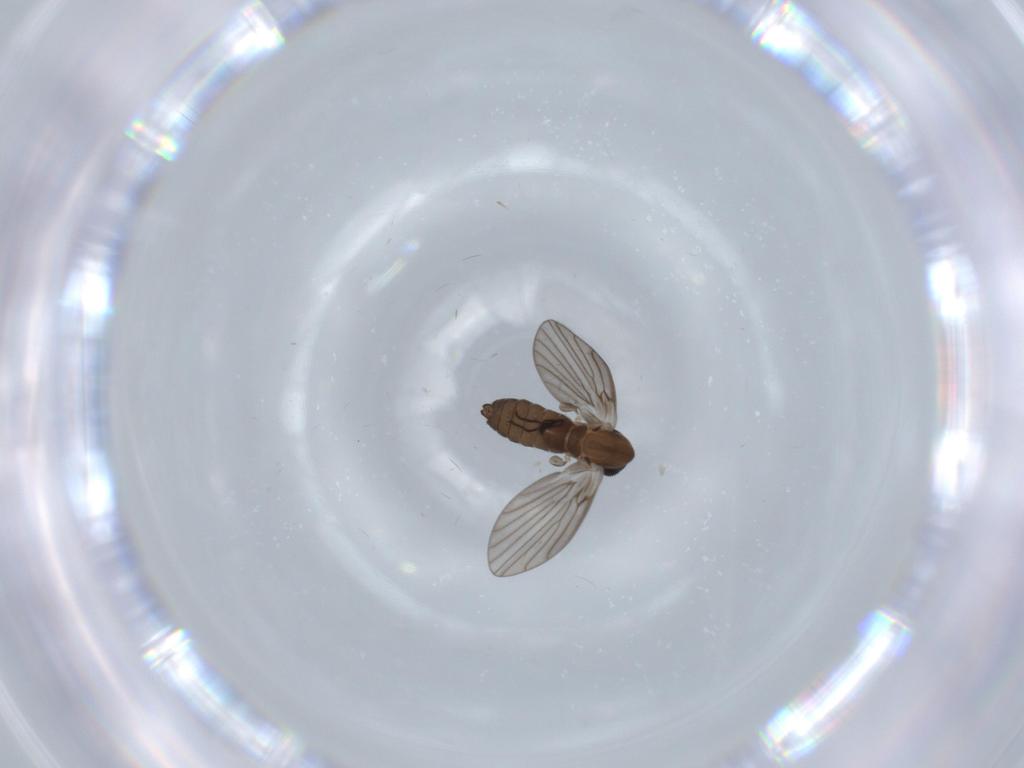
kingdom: Animalia
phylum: Arthropoda
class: Insecta
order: Diptera
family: Psychodidae
